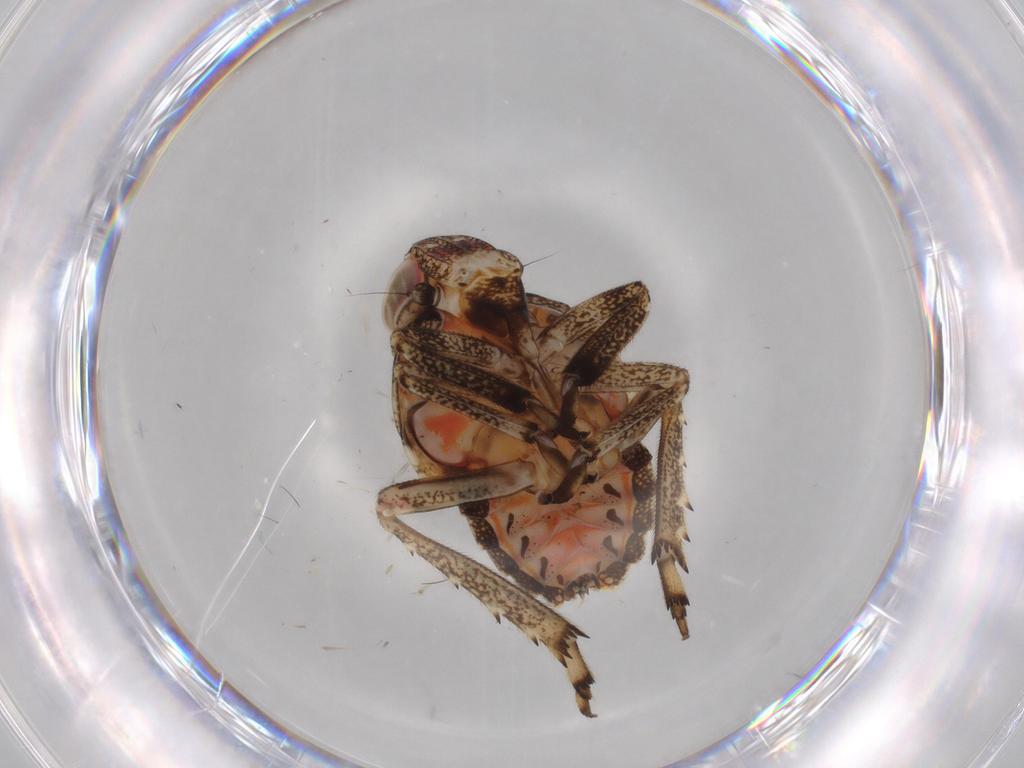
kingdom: Animalia
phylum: Arthropoda
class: Insecta
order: Hemiptera
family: Issidae
